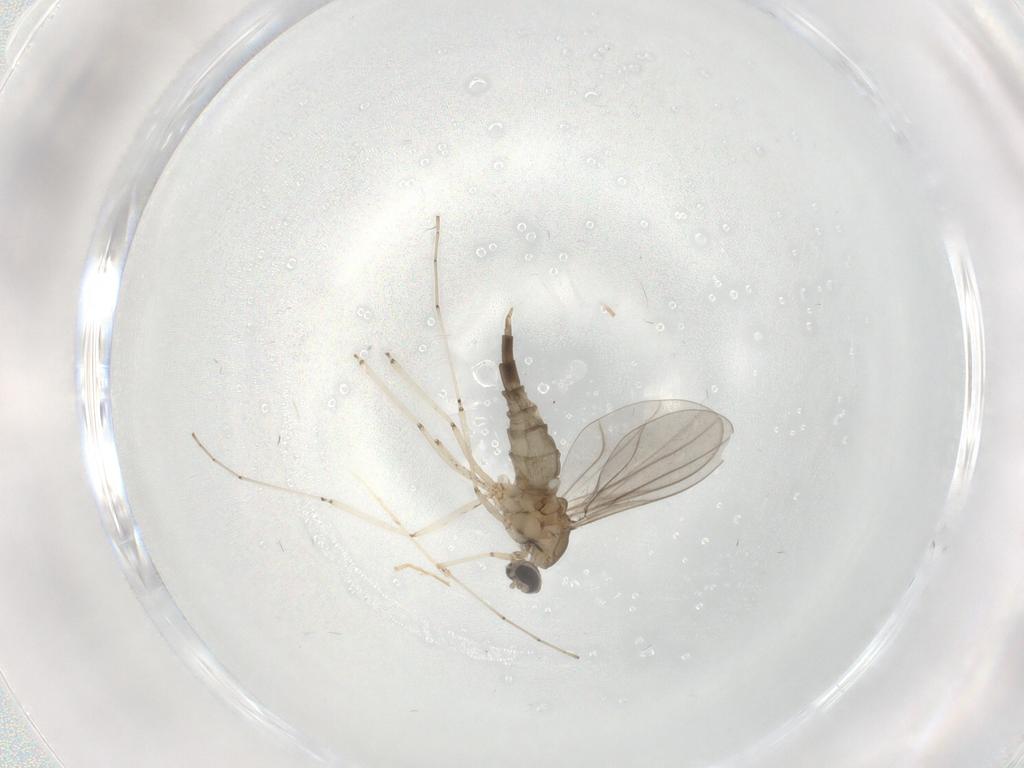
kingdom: Animalia
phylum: Arthropoda
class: Insecta
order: Diptera
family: Cecidomyiidae
